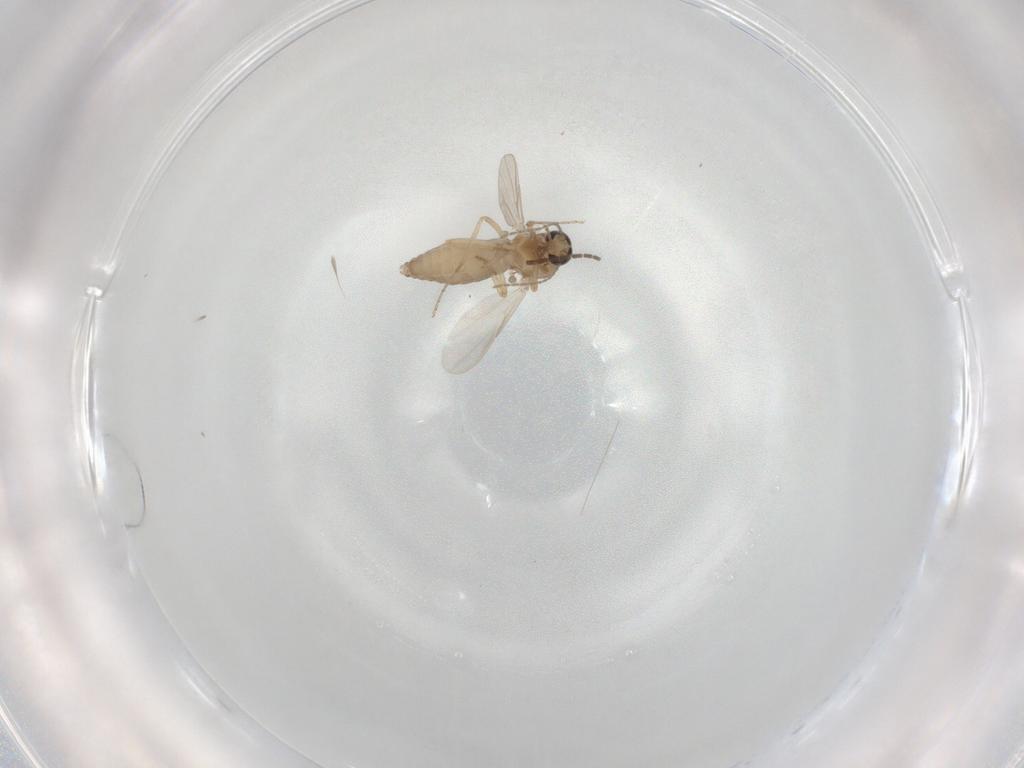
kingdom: Animalia
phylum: Arthropoda
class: Insecta
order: Diptera
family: Ceratopogonidae
